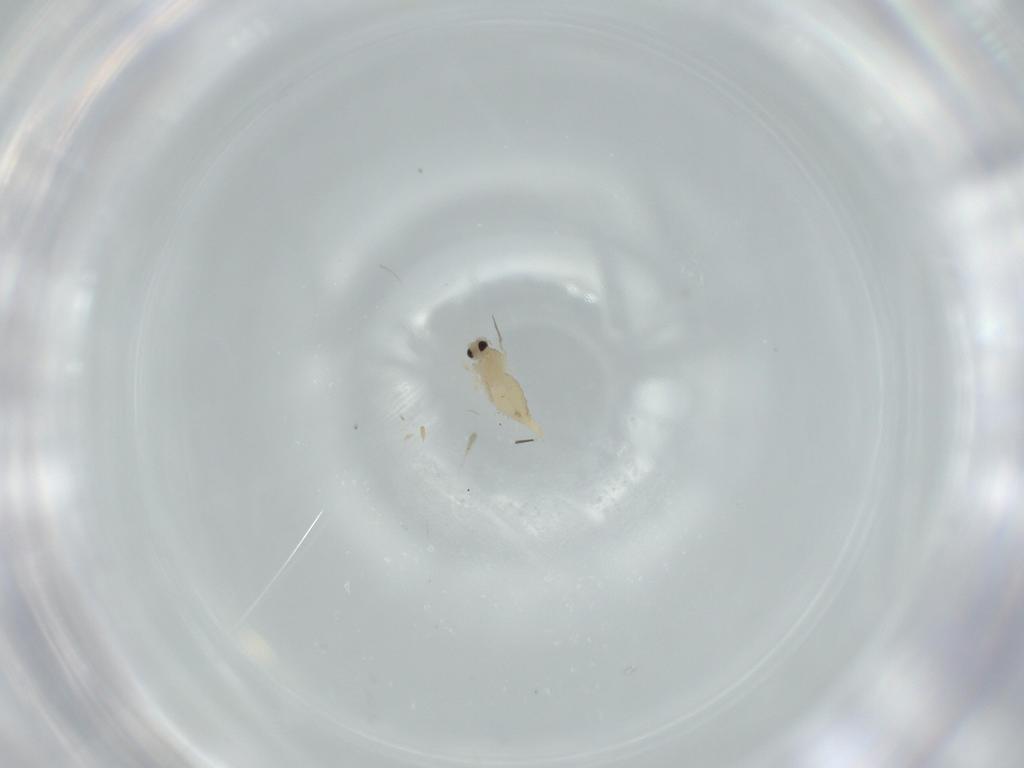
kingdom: Animalia
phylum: Arthropoda
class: Insecta
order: Diptera
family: Cecidomyiidae
